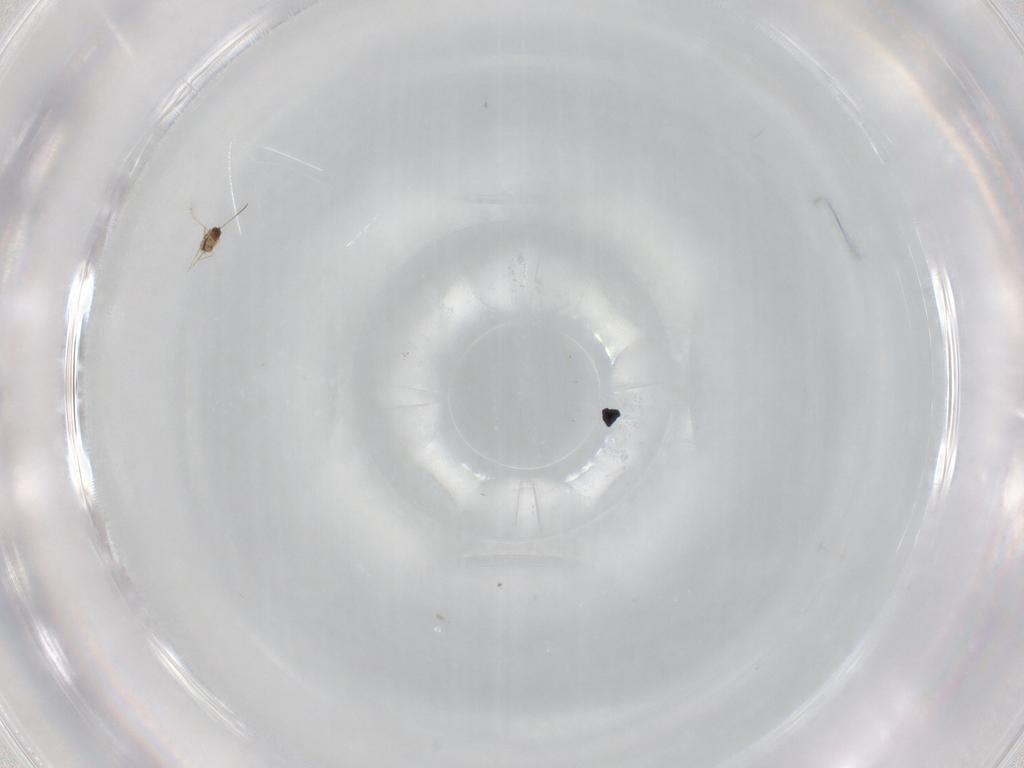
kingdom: Animalia
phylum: Arthropoda
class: Insecta
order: Hymenoptera
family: Mymaridae
